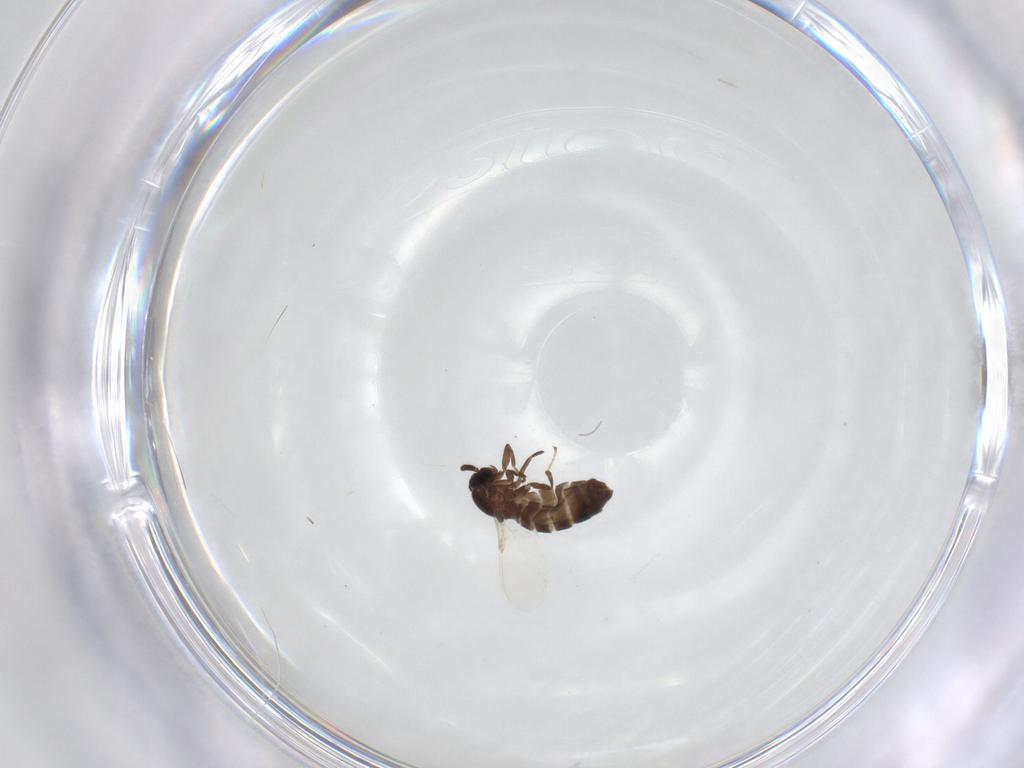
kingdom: Animalia
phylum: Arthropoda
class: Insecta
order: Diptera
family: Scatopsidae
